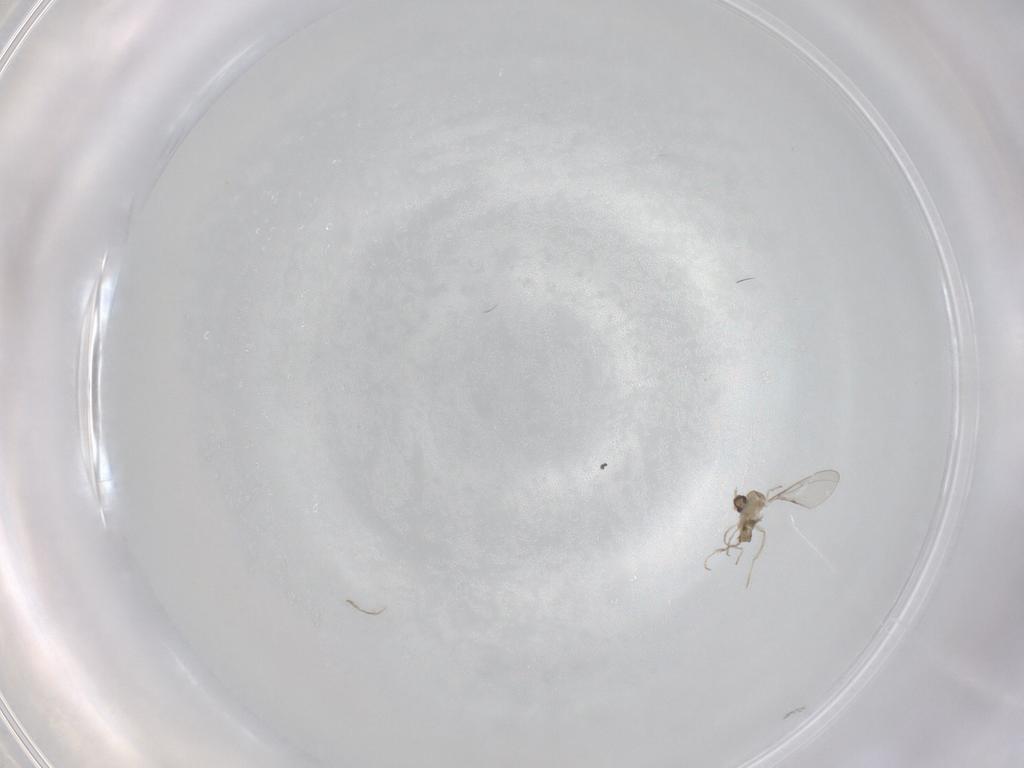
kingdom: Animalia
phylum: Arthropoda
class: Insecta
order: Diptera
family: Cecidomyiidae
